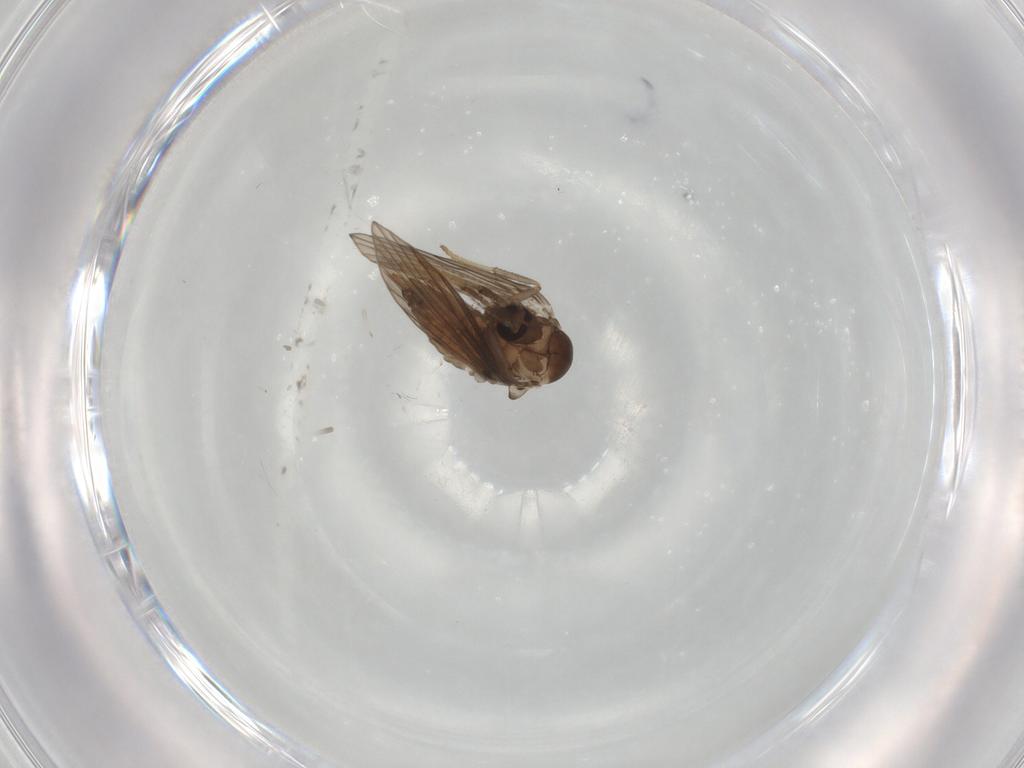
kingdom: Animalia
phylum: Arthropoda
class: Insecta
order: Diptera
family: Psychodidae
